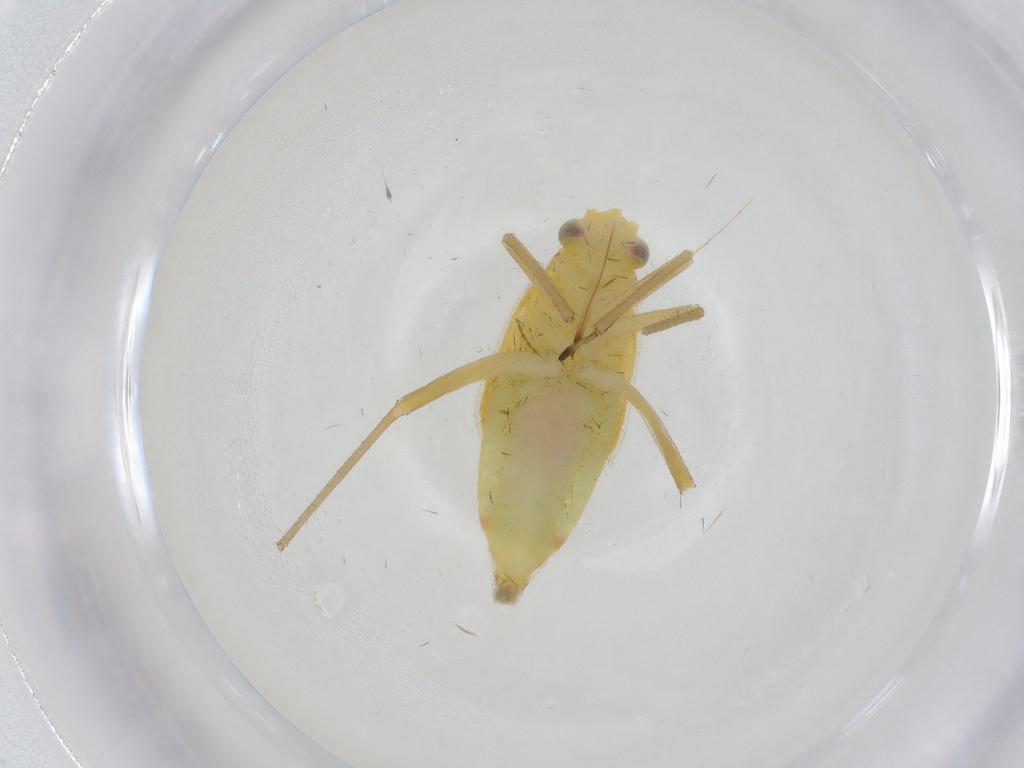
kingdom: Animalia
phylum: Arthropoda
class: Insecta
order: Hemiptera
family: Miridae
